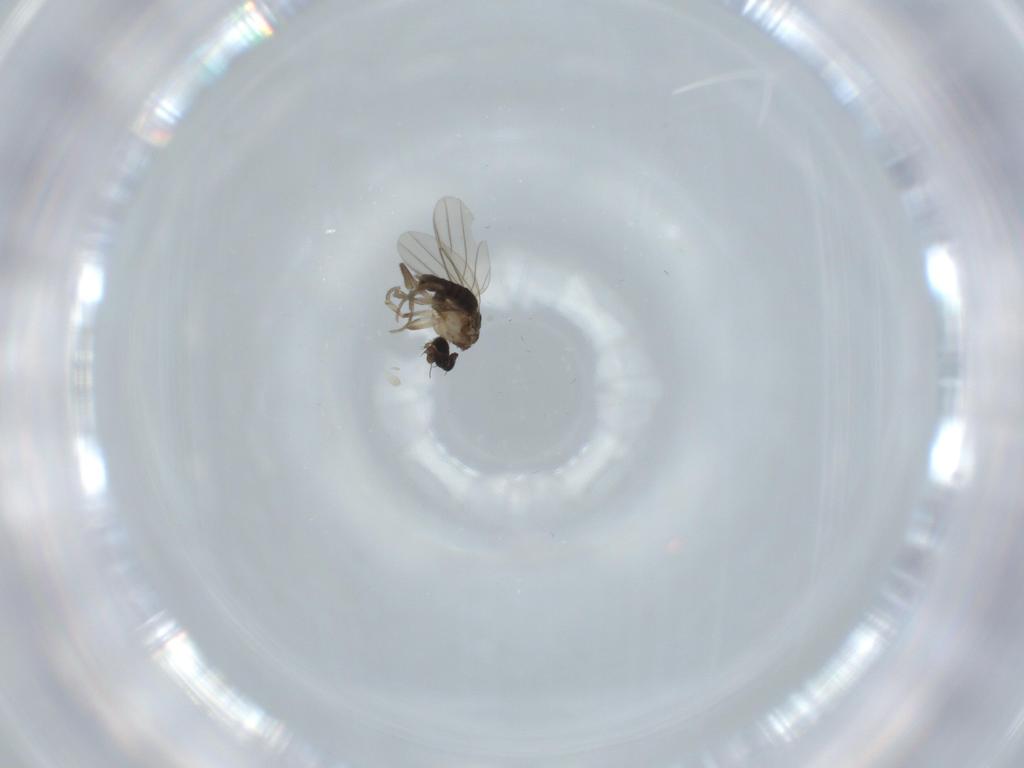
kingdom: Animalia
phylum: Arthropoda
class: Insecta
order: Diptera
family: Phoridae
